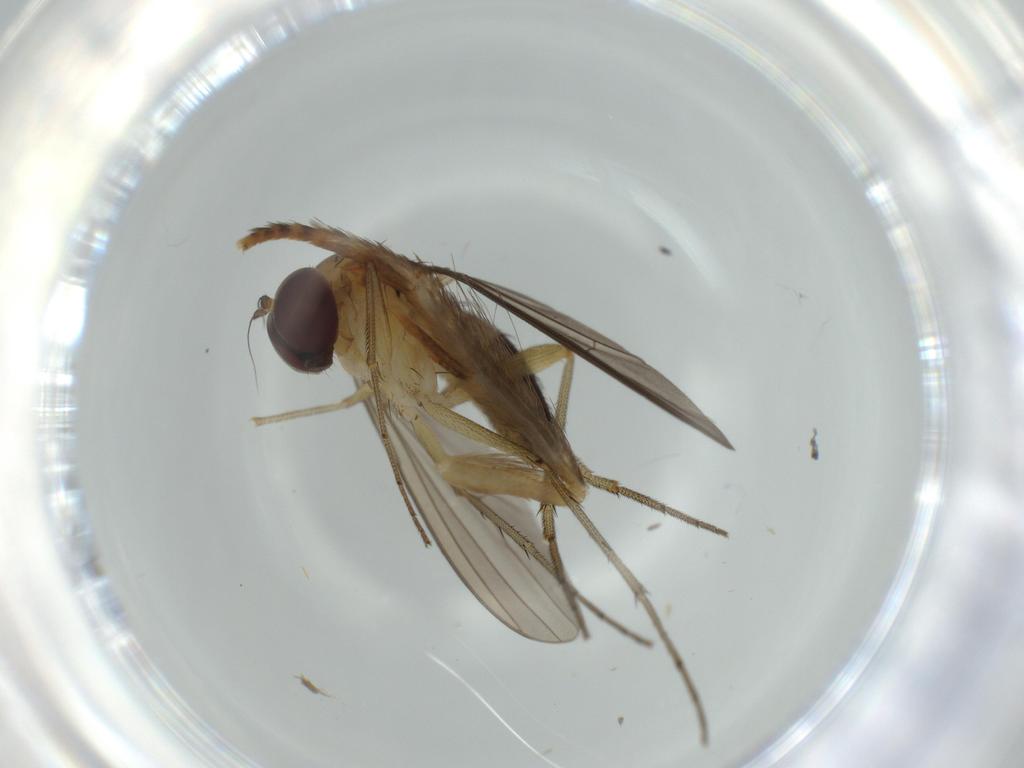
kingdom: Animalia
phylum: Arthropoda
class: Insecta
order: Diptera
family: Dolichopodidae
